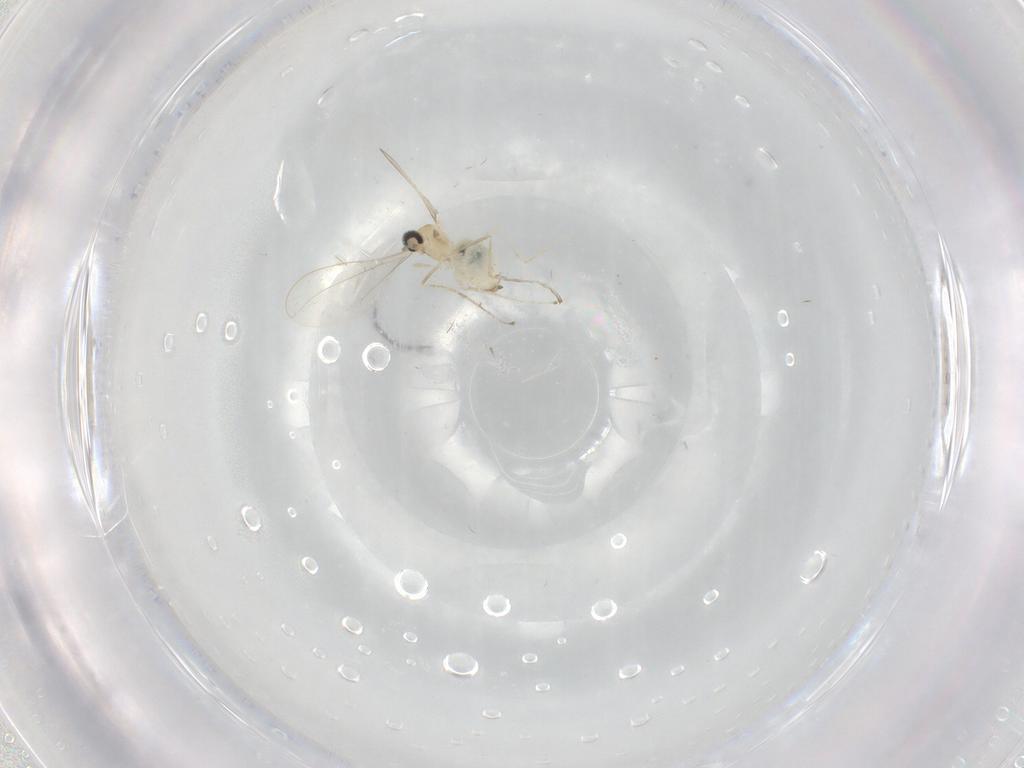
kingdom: Animalia
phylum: Arthropoda
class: Insecta
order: Diptera
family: Cecidomyiidae
